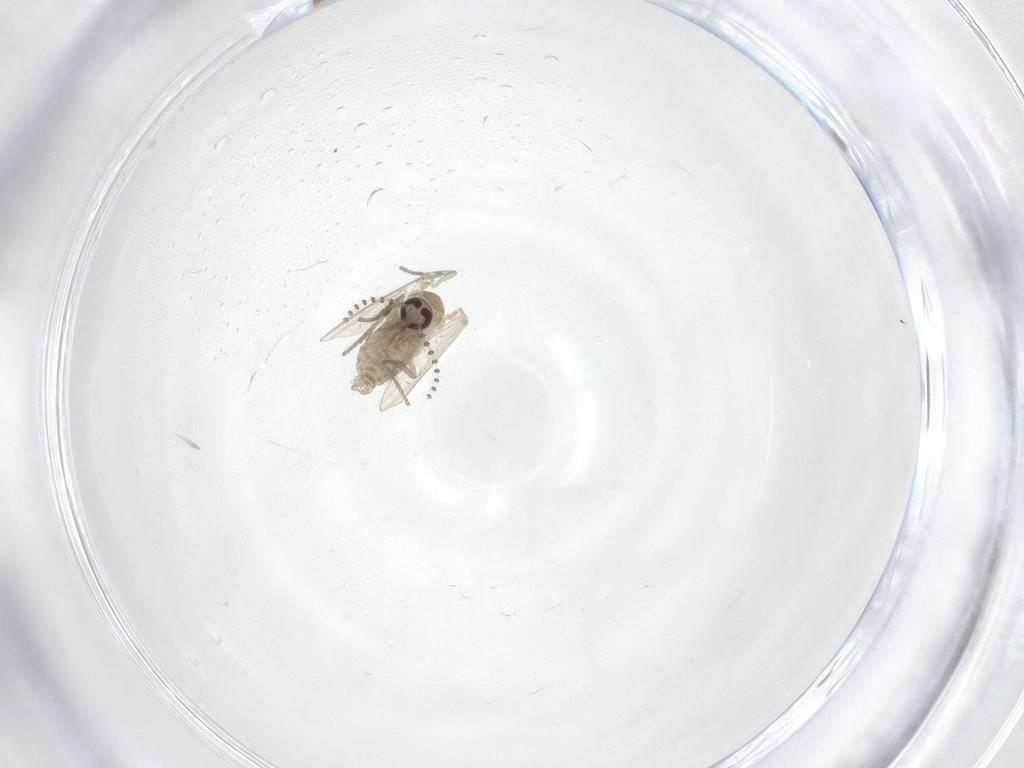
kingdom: Animalia
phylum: Arthropoda
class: Insecta
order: Diptera
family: Psychodidae
